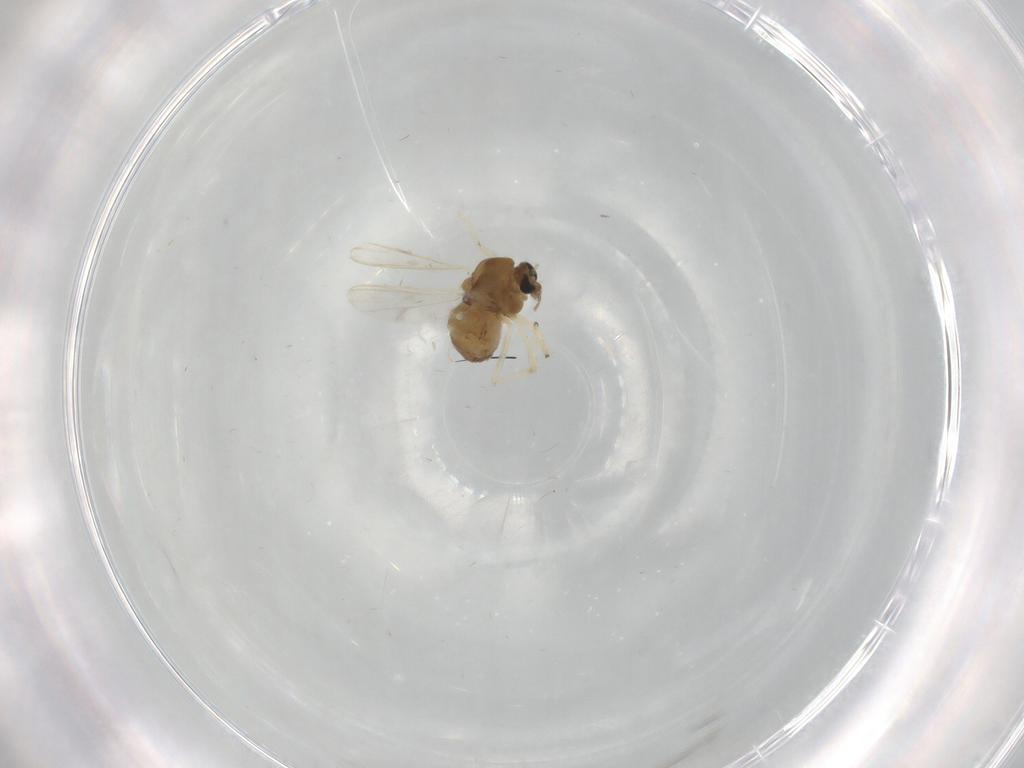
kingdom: Animalia
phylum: Arthropoda
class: Insecta
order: Diptera
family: Chironomidae
